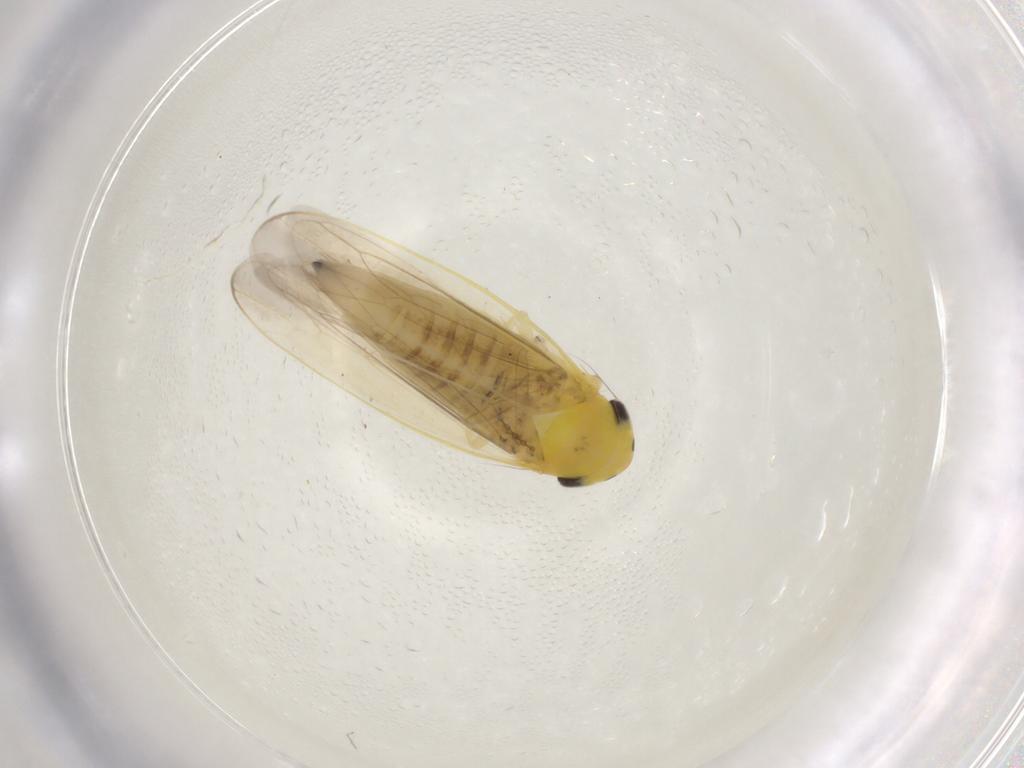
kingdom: Animalia
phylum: Arthropoda
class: Insecta
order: Hemiptera
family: Cicadellidae
